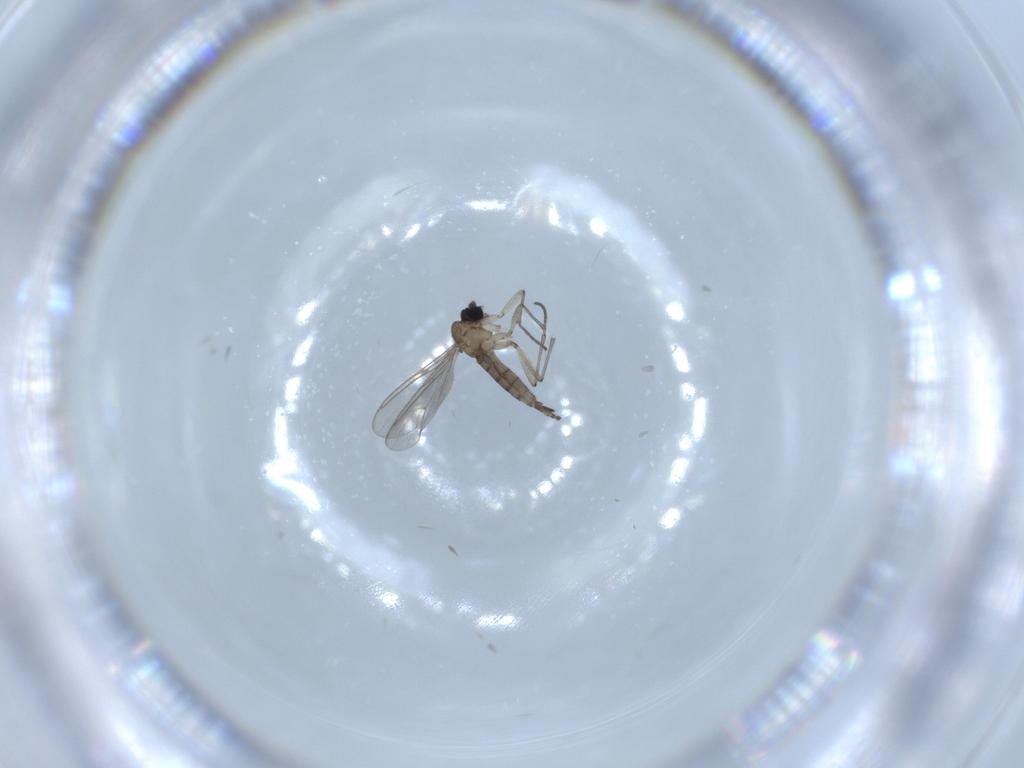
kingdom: Animalia
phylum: Arthropoda
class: Insecta
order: Diptera
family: Sciaridae
